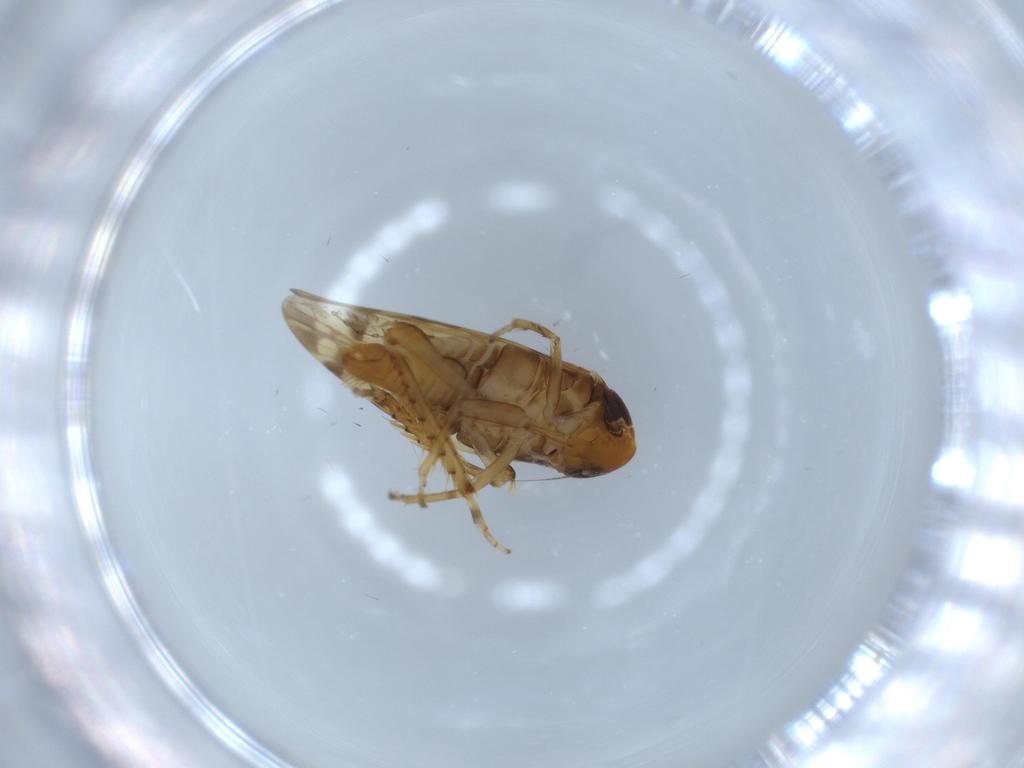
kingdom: Animalia
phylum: Arthropoda
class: Insecta
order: Hemiptera
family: Cicadellidae
